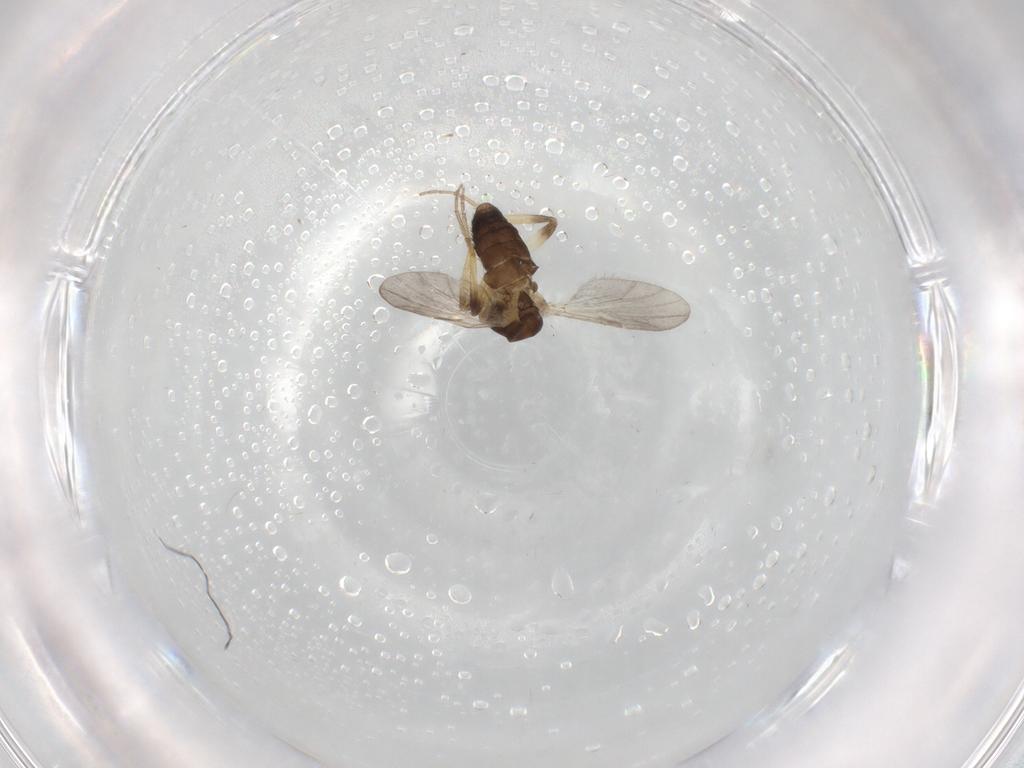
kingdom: Animalia
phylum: Arthropoda
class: Insecta
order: Diptera
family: Ceratopogonidae
